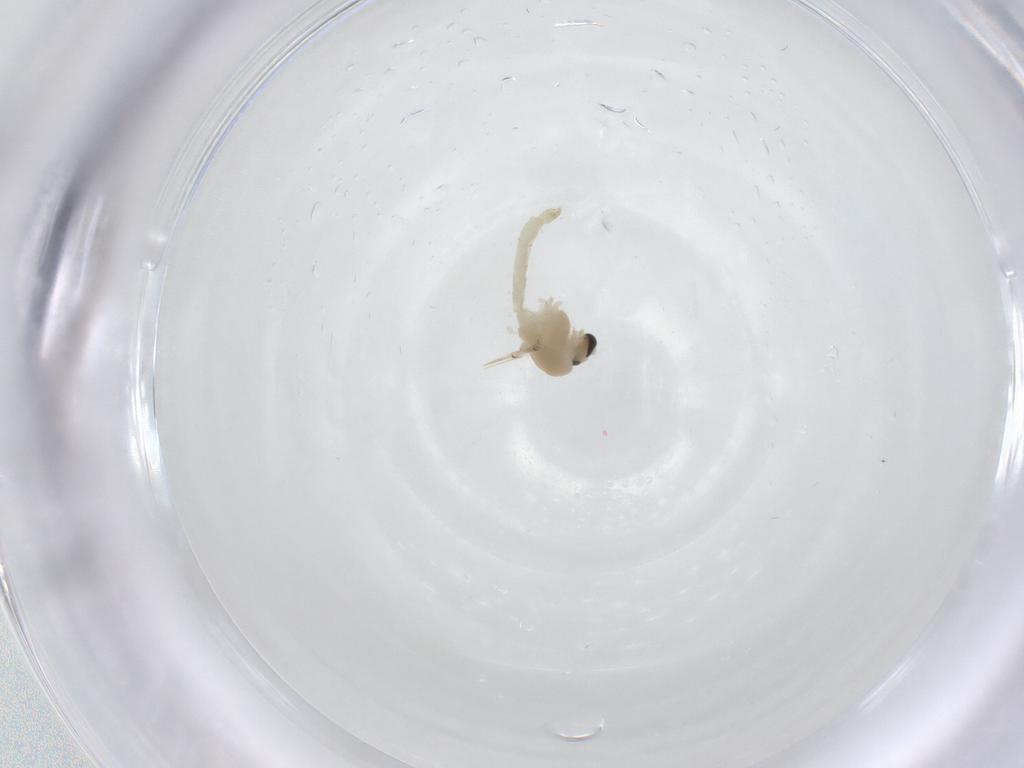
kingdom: Animalia
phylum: Arthropoda
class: Insecta
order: Diptera
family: Chironomidae
